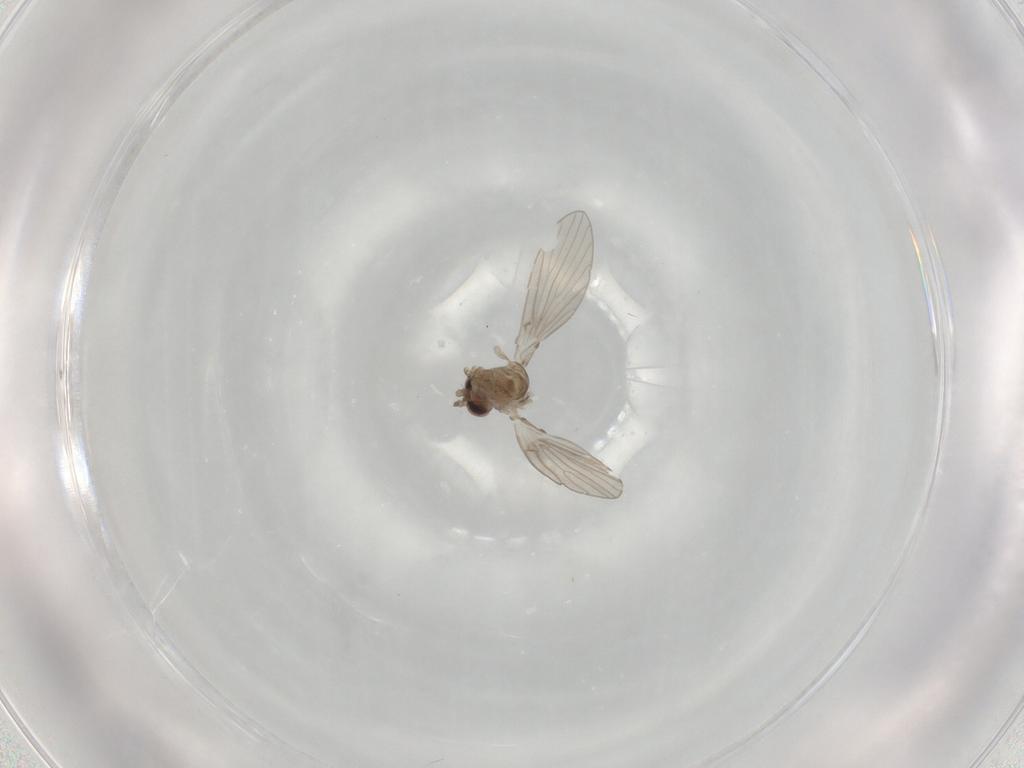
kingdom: Animalia
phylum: Arthropoda
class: Insecta
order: Diptera
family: Psychodidae
